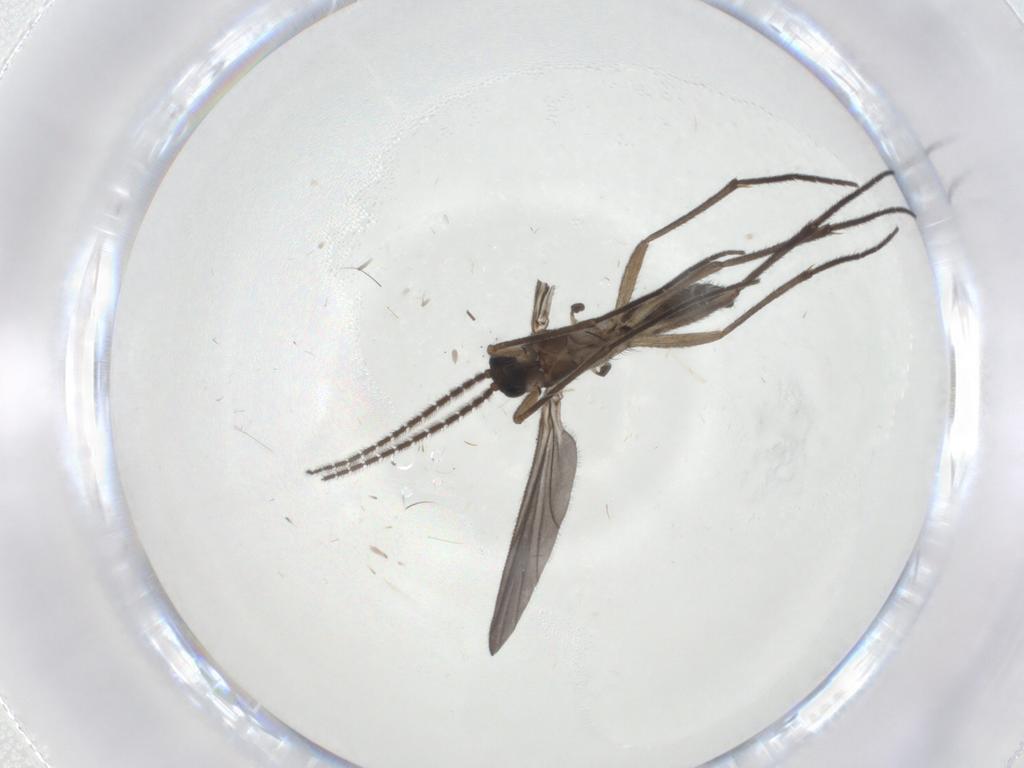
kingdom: Animalia
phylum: Arthropoda
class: Insecta
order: Diptera
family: Sciaridae
